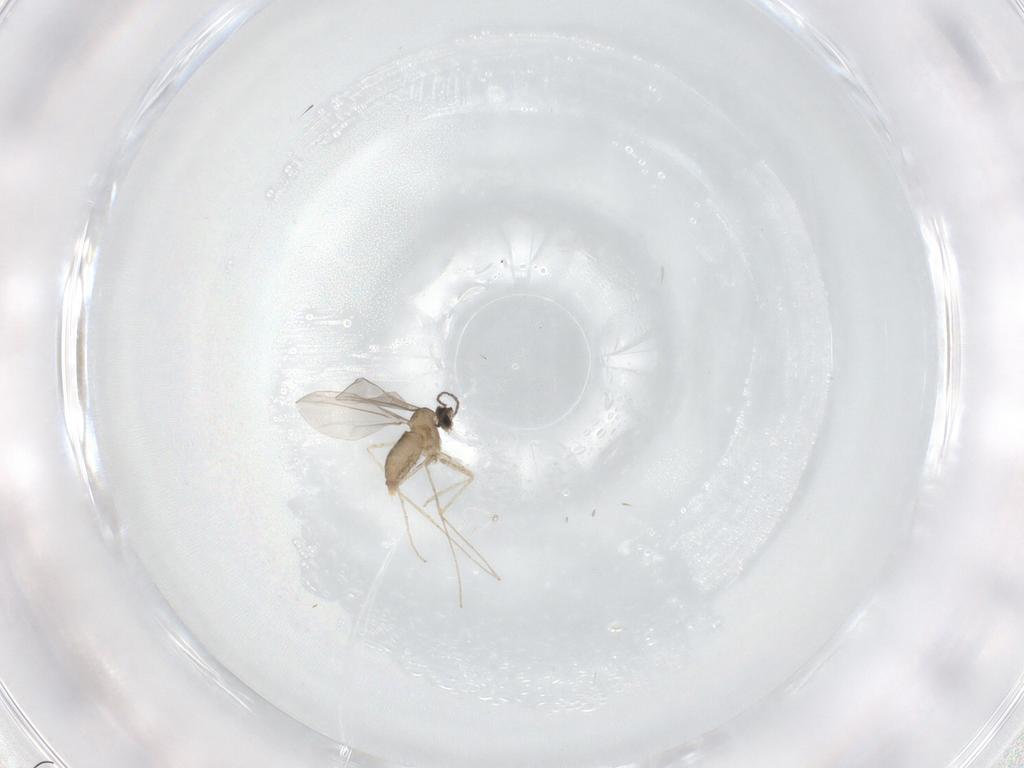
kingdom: Animalia
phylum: Arthropoda
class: Insecta
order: Diptera
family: Cecidomyiidae
